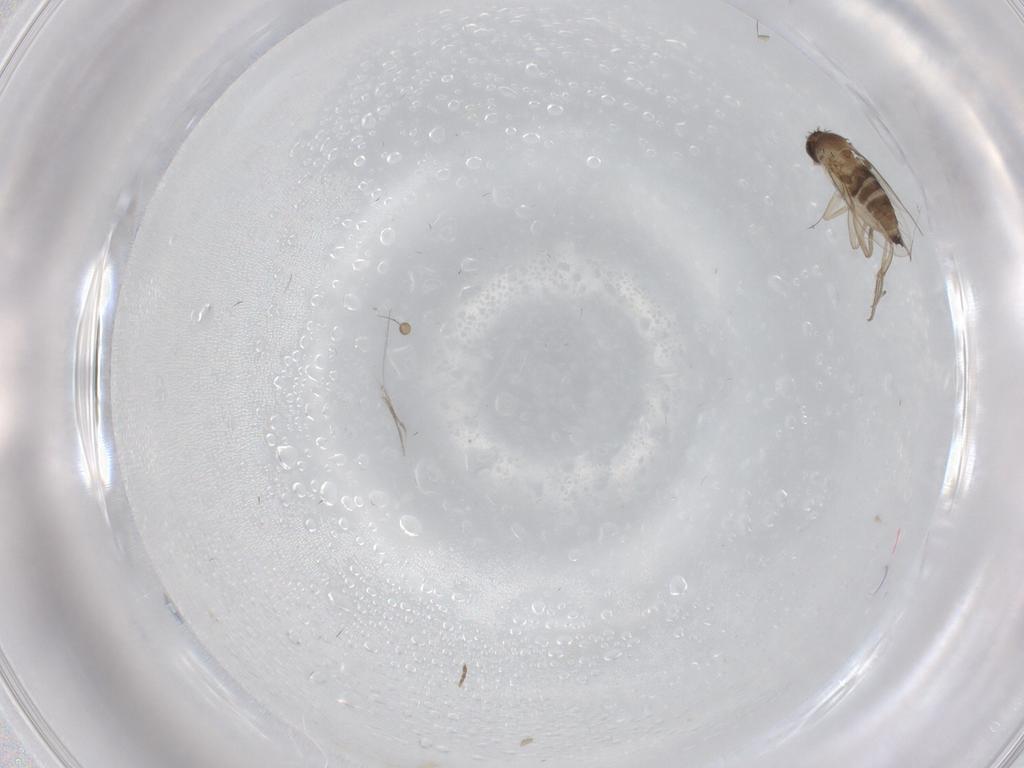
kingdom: Animalia
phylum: Arthropoda
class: Insecta
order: Diptera
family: Phoridae
